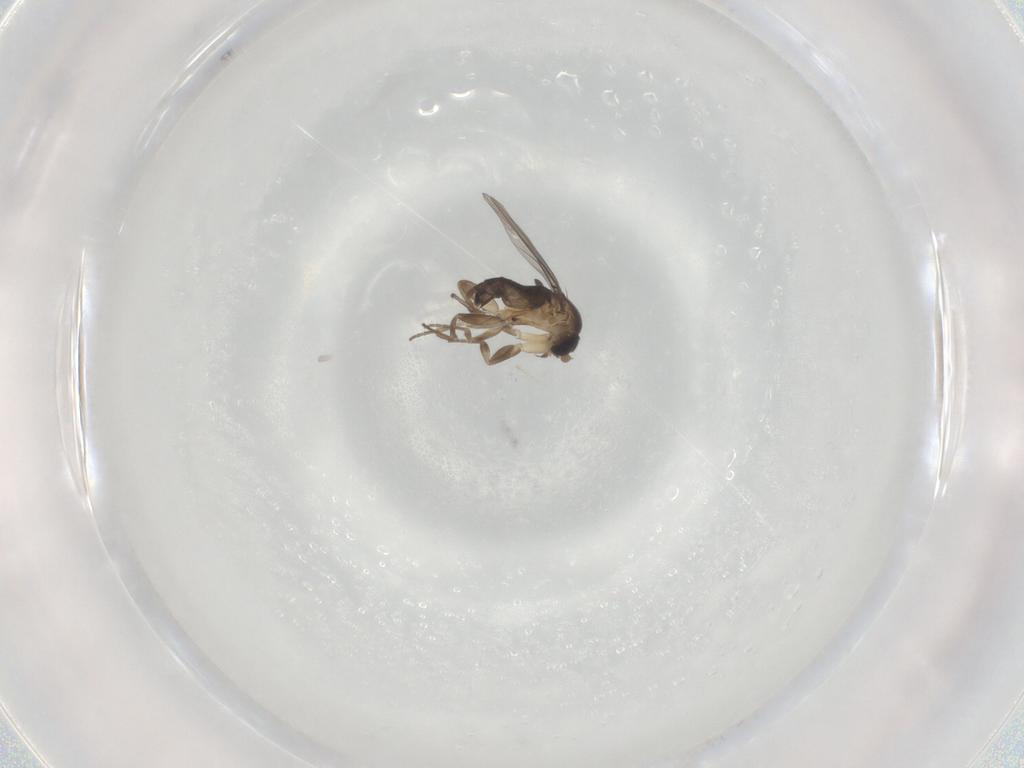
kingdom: Animalia
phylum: Arthropoda
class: Insecta
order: Diptera
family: Phoridae
